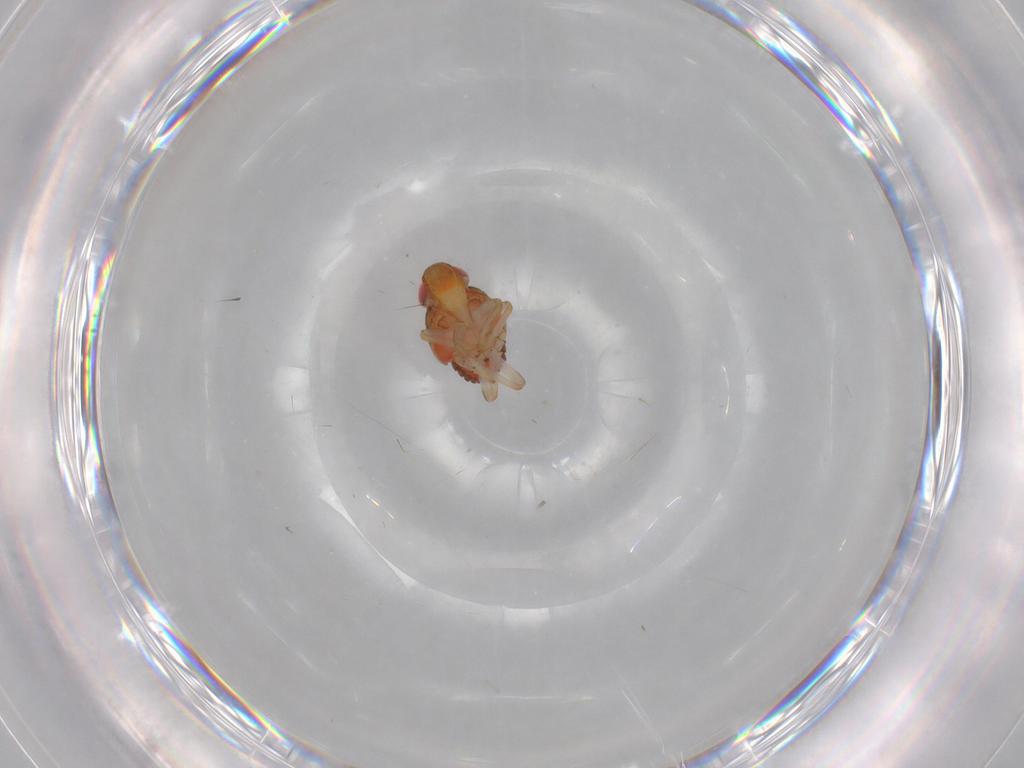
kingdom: Animalia
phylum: Arthropoda
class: Insecta
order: Hemiptera
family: Issidae
